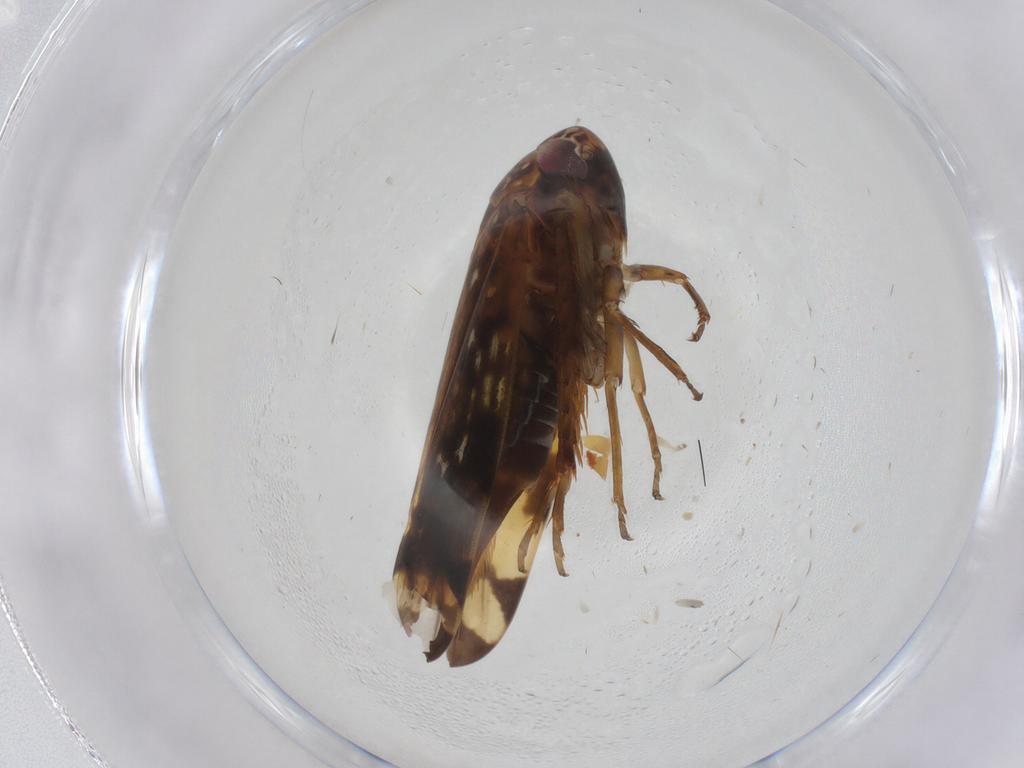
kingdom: Animalia
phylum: Arthropoda
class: Insecta
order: Hemiptera
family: Cicadellidae
